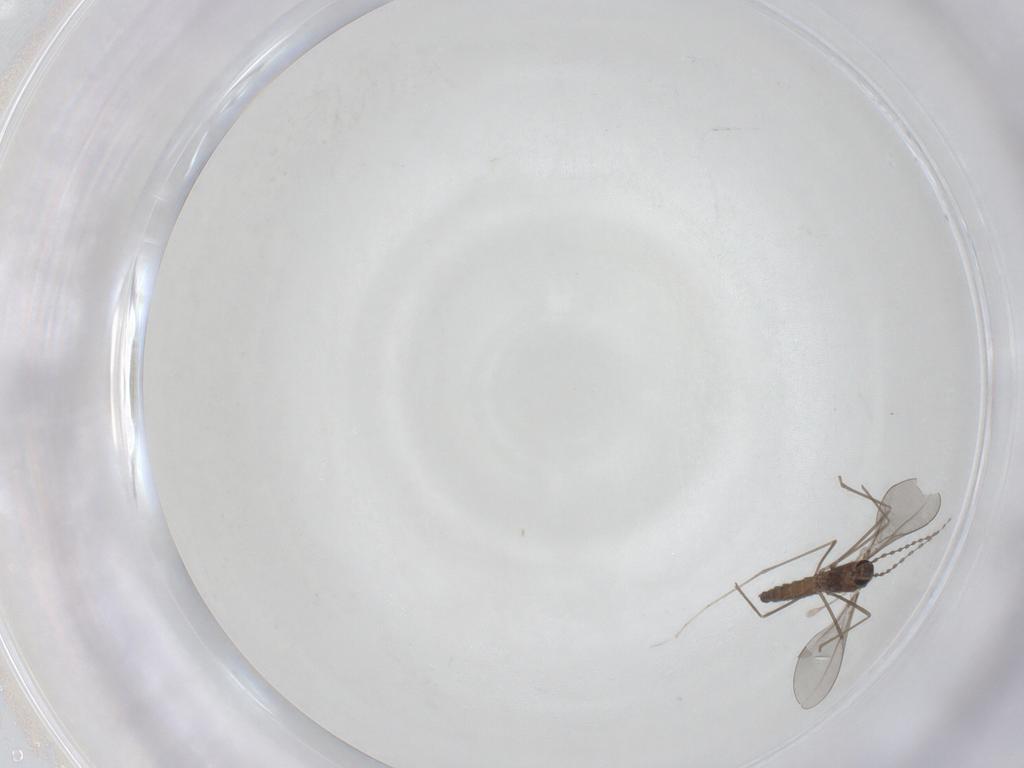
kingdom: Animalia
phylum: Arthropoda
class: Insecta
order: Diptera
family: Cecidomyiidae
